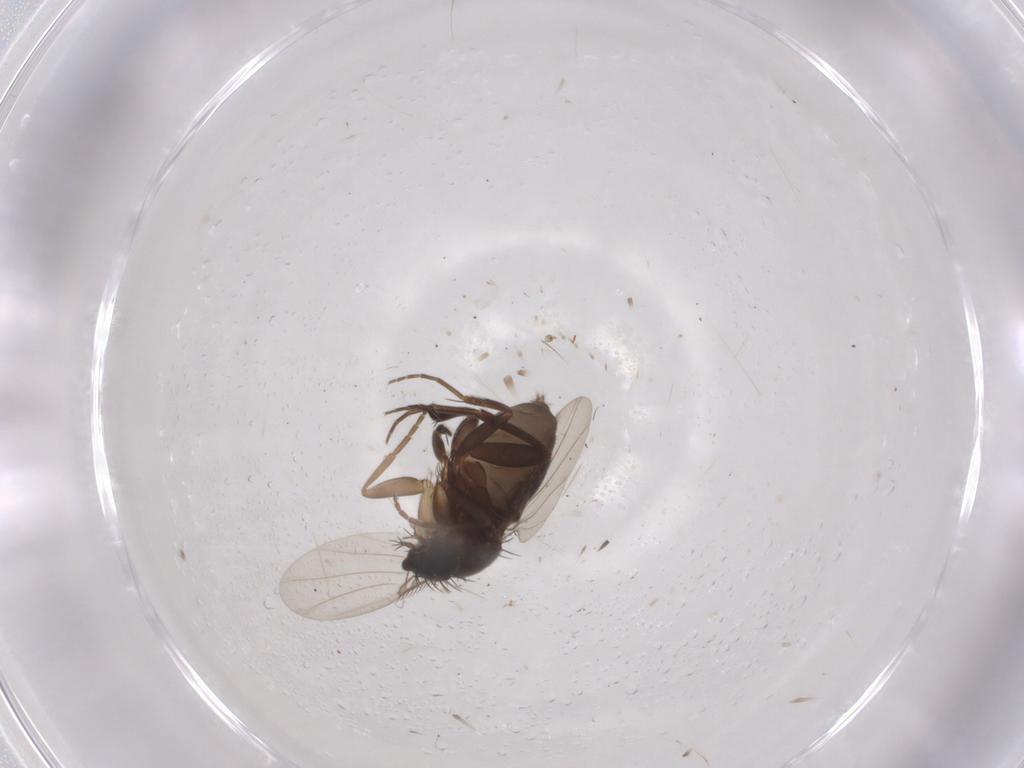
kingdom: Animalia
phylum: Arthropoda
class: Insecta
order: Diptera
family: Phoridae
